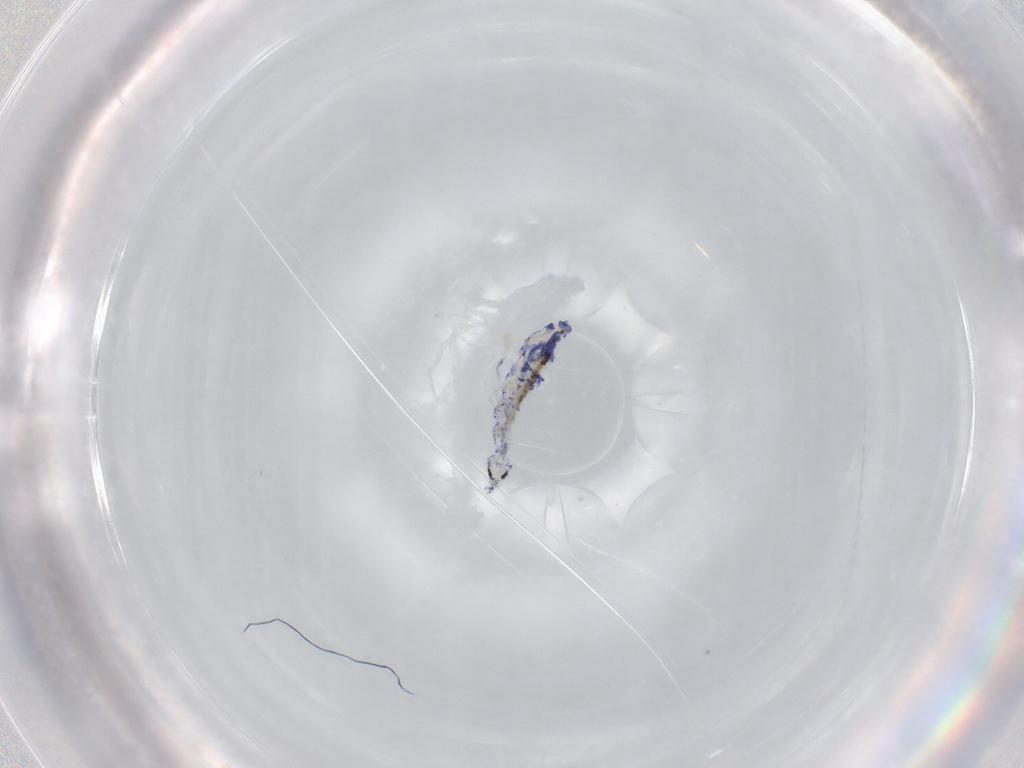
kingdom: Animalia
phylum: Arthropoda
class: Collembola
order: Entomobryomorpha
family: Entomobryidae
